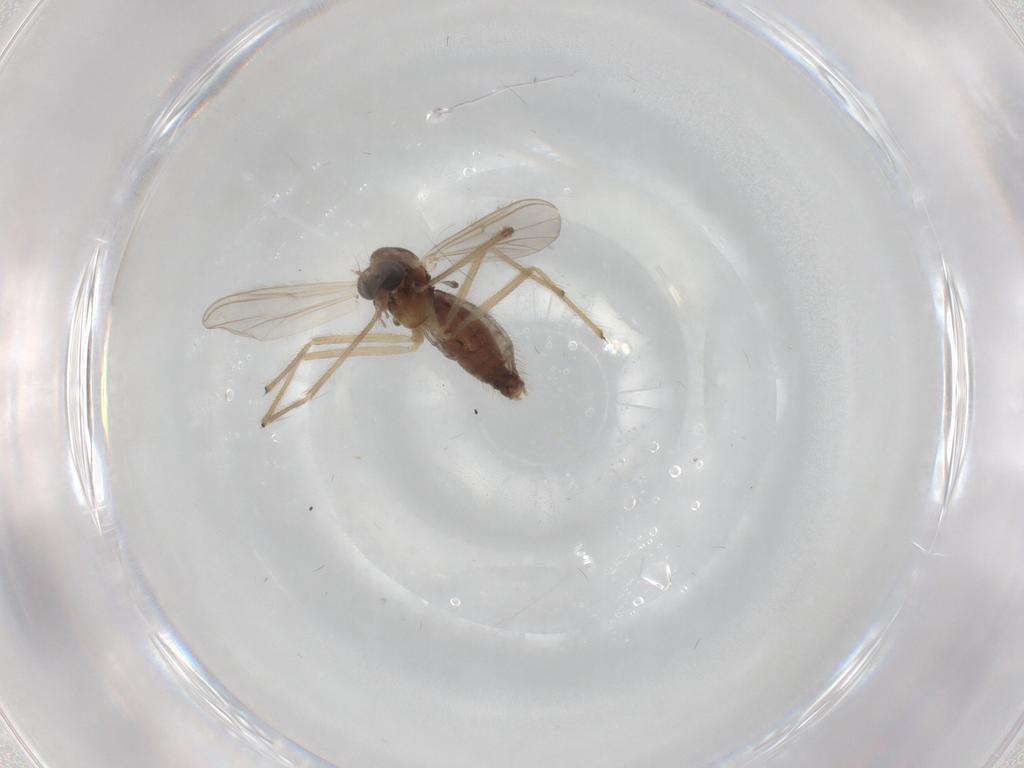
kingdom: Animalia
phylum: Arthropoda
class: Insecta
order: Diptera
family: Chironomidae
